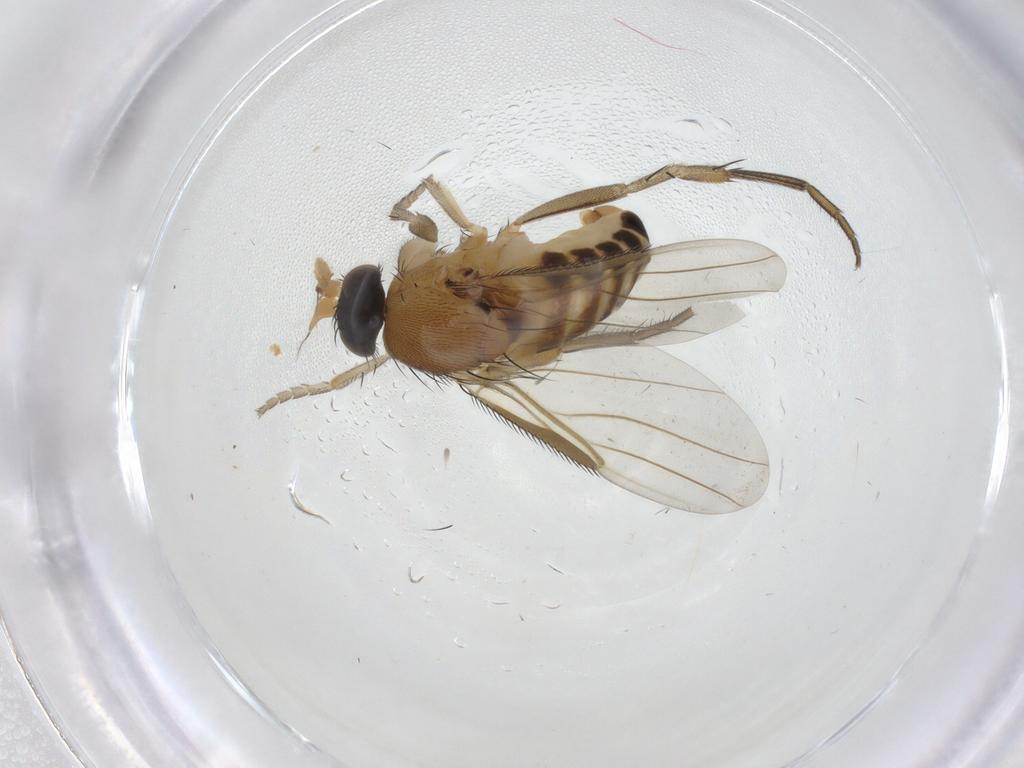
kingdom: Animalia
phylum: Arthropoda
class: Insecta
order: Diptera
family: Phoridae
